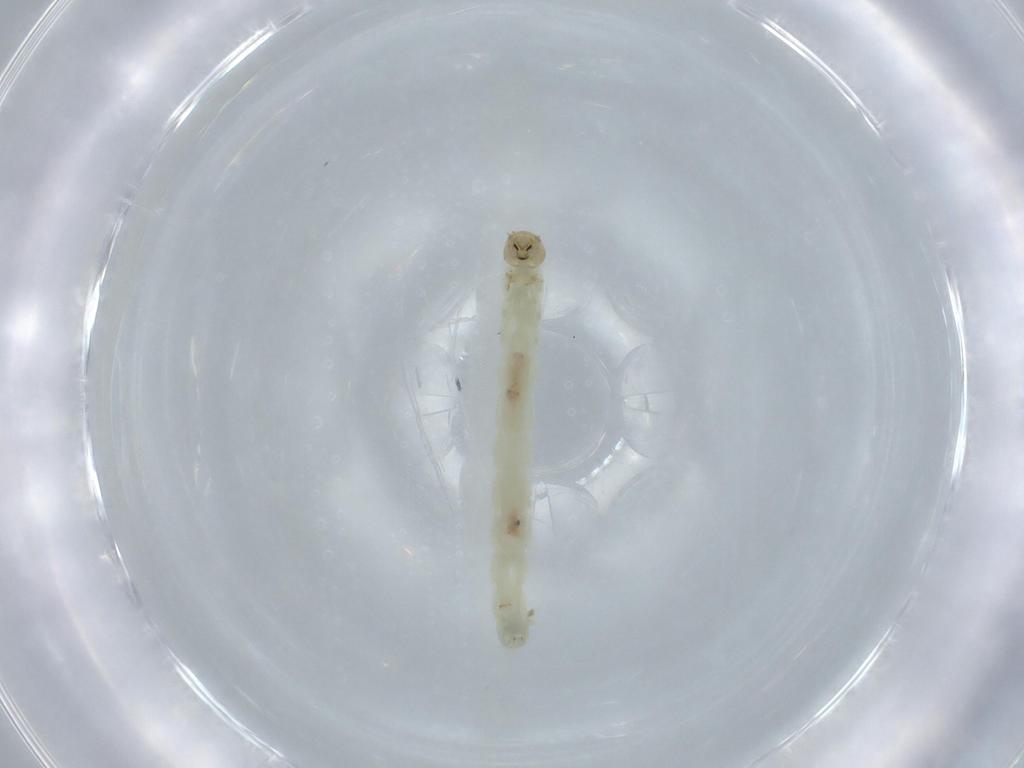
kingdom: Animalia
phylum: Arthropoda
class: Insecta
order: Diptera
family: Chironomidae
